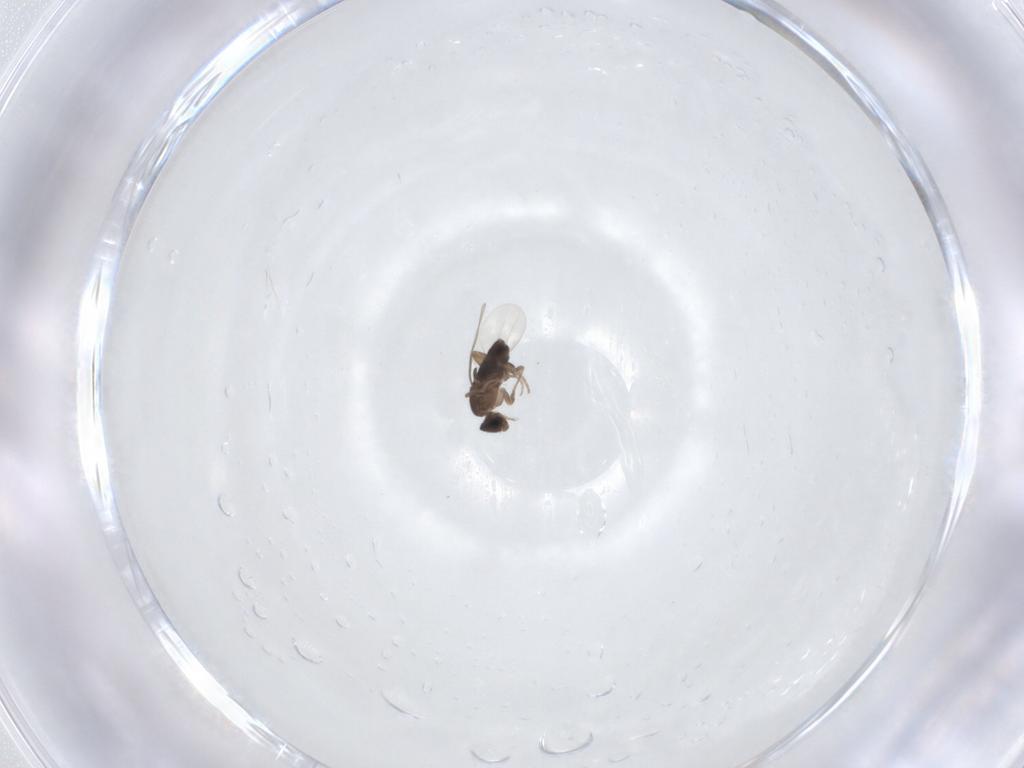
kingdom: Animalia
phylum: Arthropoda
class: Insecta
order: Diptera
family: Phoridae
